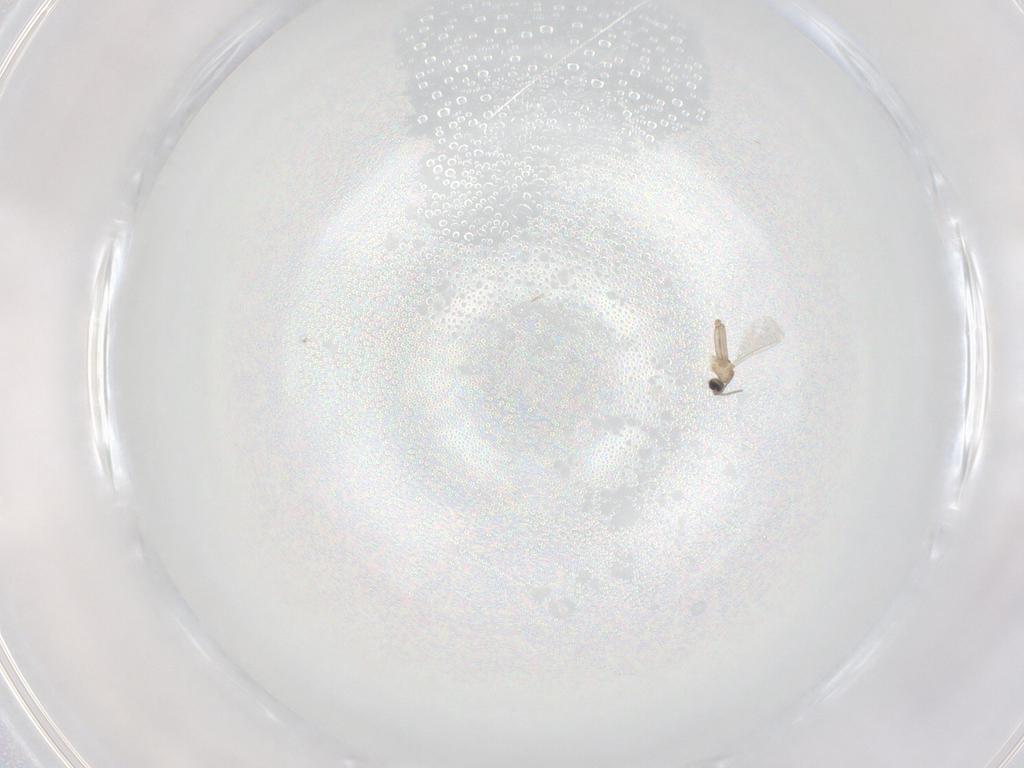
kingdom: Animalia
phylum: Arthropoda
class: Insecta
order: Diptera
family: Cecidomyiidae
